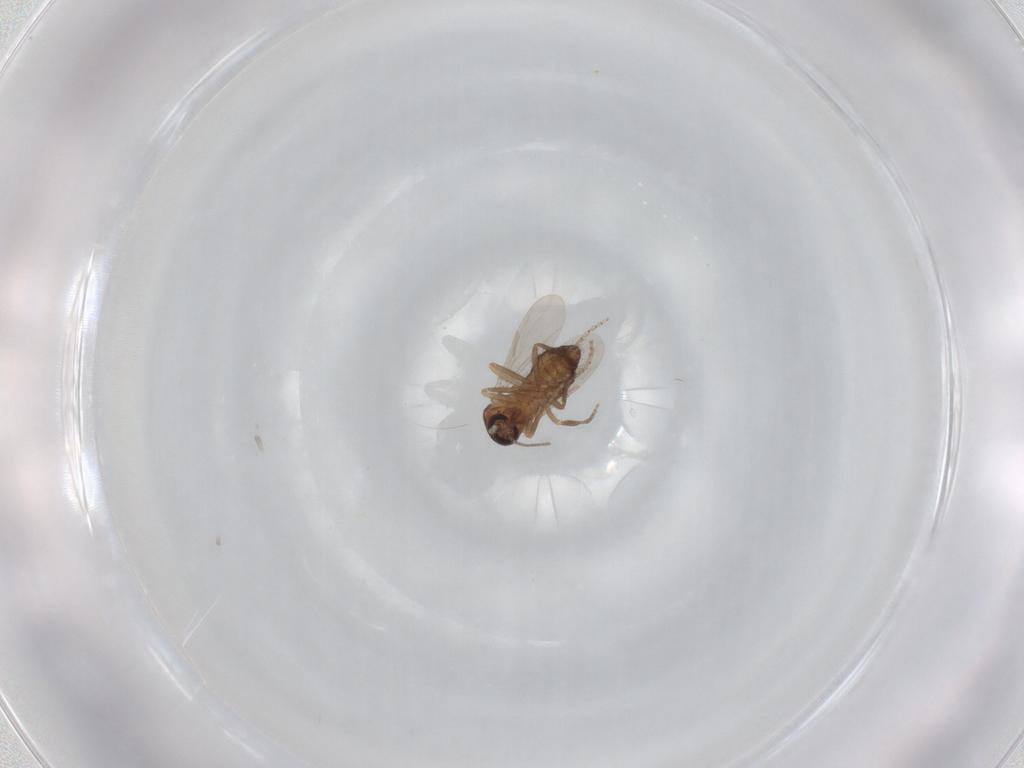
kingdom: Animalia
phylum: Arthropoda
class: Insecta
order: Diptera
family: Ceratopogonidae
